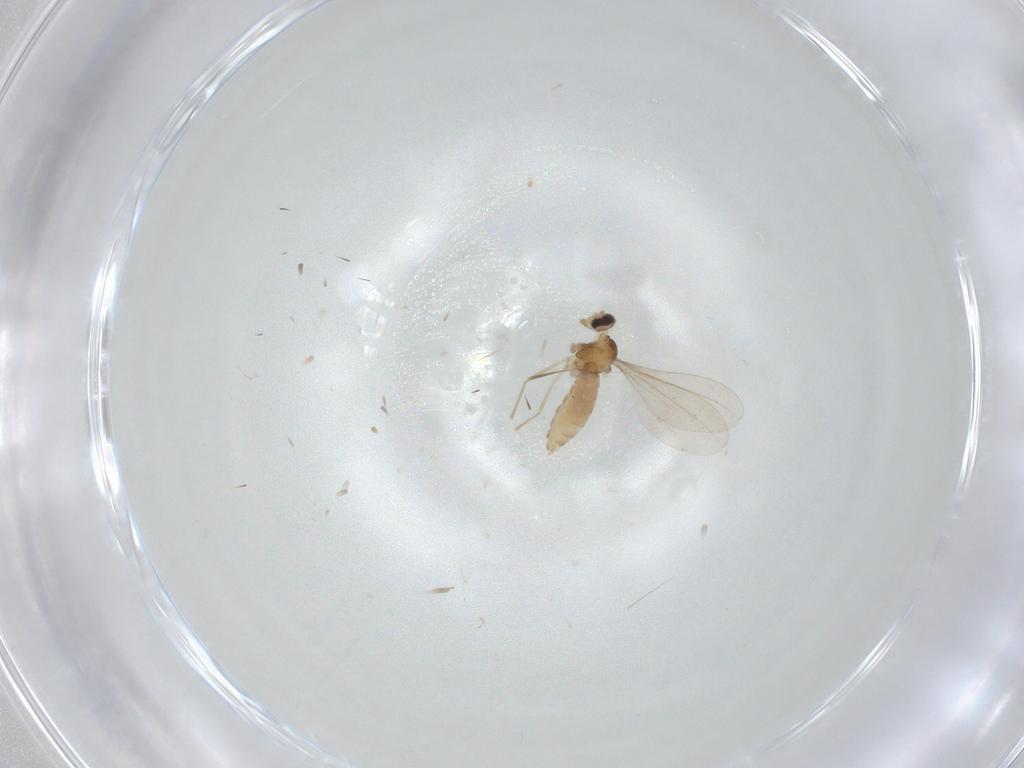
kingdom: Animalia
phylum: Arthropoda
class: Insecta
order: Diptera
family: Cecidomyiidae
